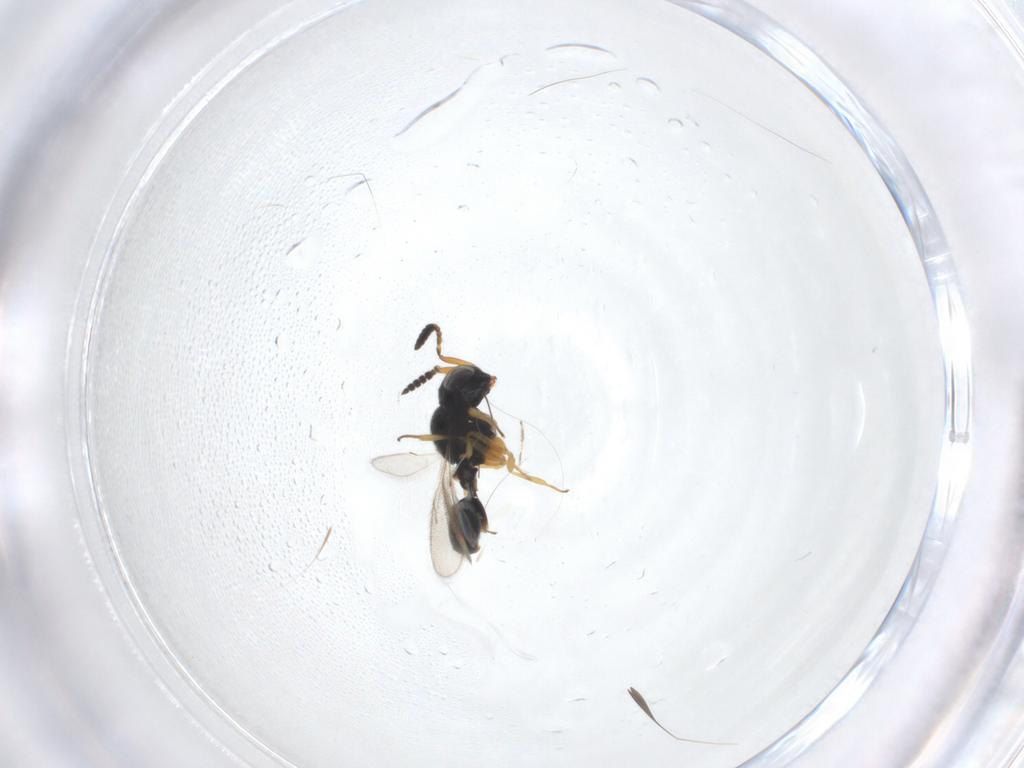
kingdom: Animalia
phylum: Arthropoda
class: Insecta
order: Hymenoptera
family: Scelionidae
